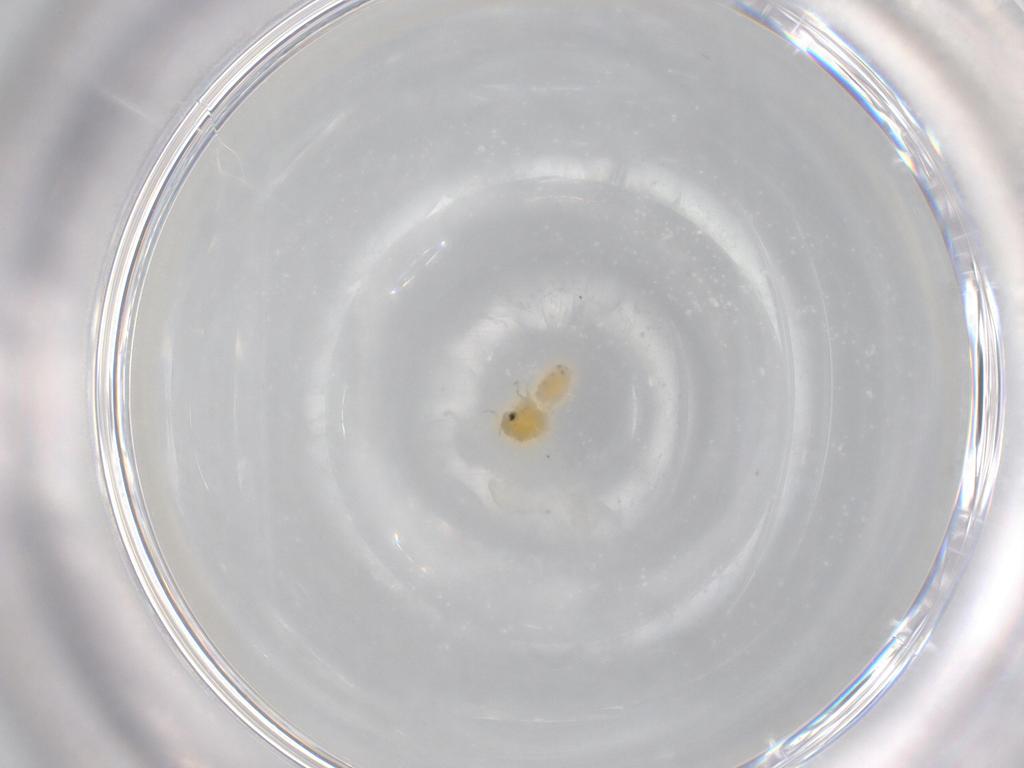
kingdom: Animalia
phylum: Arthropoda
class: Insecta
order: Hemiptera
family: Aleyrodidae
